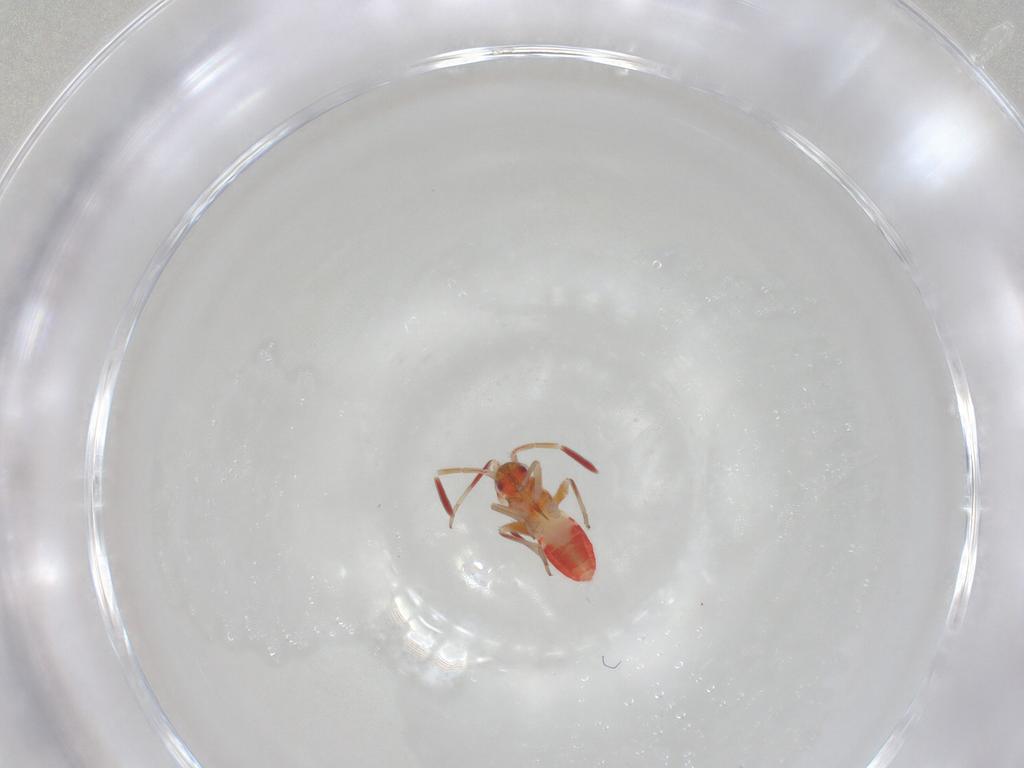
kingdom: Animalia
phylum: Arthropoda
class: Insecta
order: Hemiptera
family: Miridae
